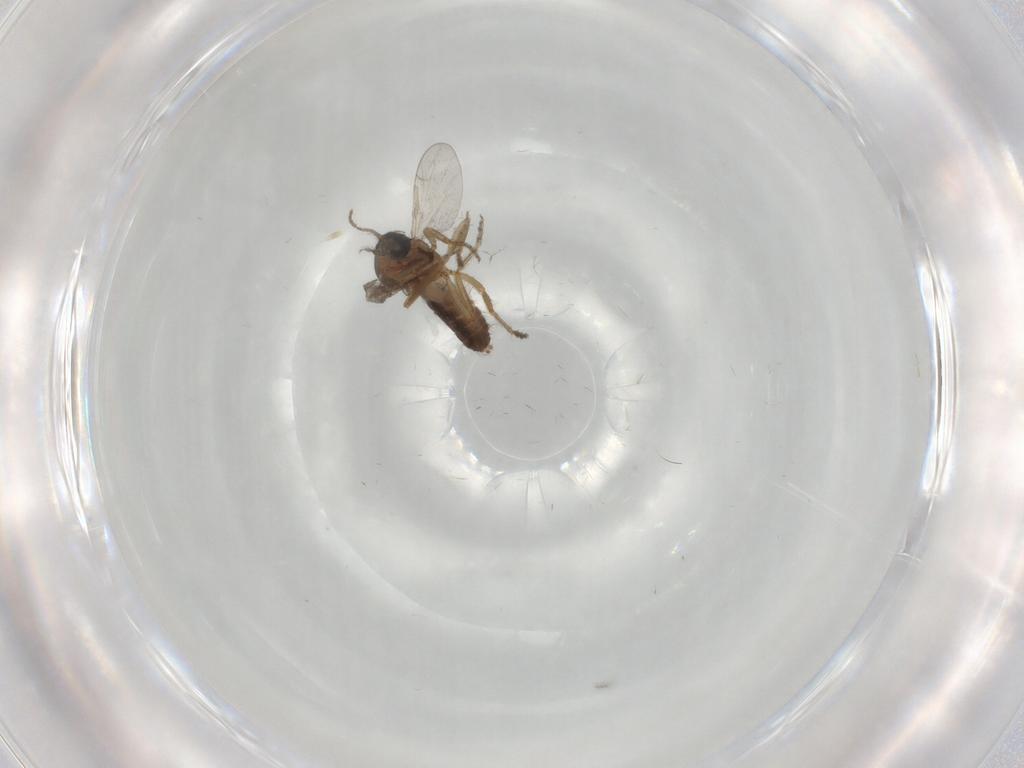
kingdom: Animalia
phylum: Arthropoda
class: Insecta
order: Diptera
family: Ceratopogonidae
